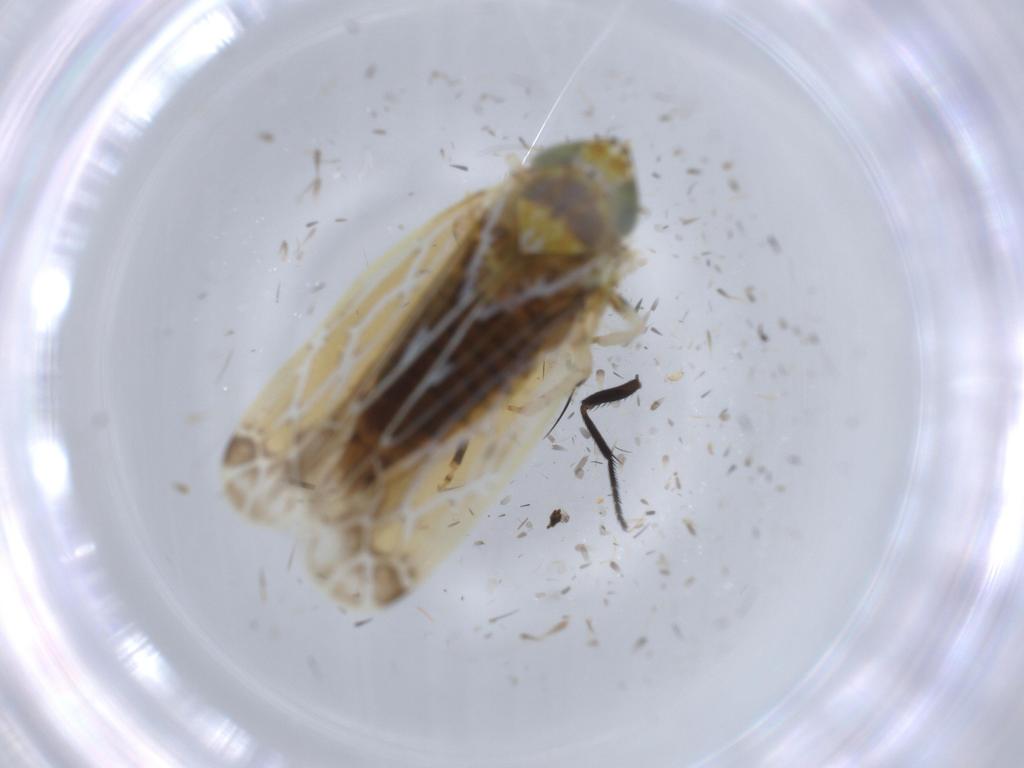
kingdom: Animalia
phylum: Arthropoda
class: Insecta
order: Hemiptera
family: Cicadellidae
